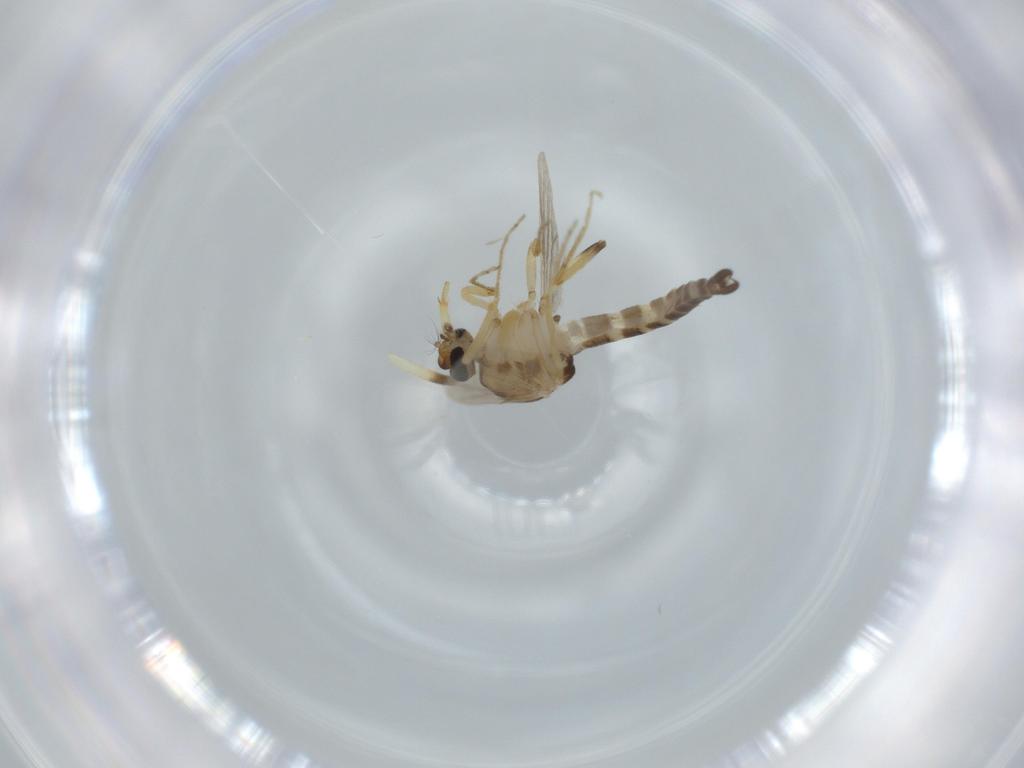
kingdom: Animalia
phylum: Arthropoda
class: Insecta
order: Diptera
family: Ceratopogonidae
